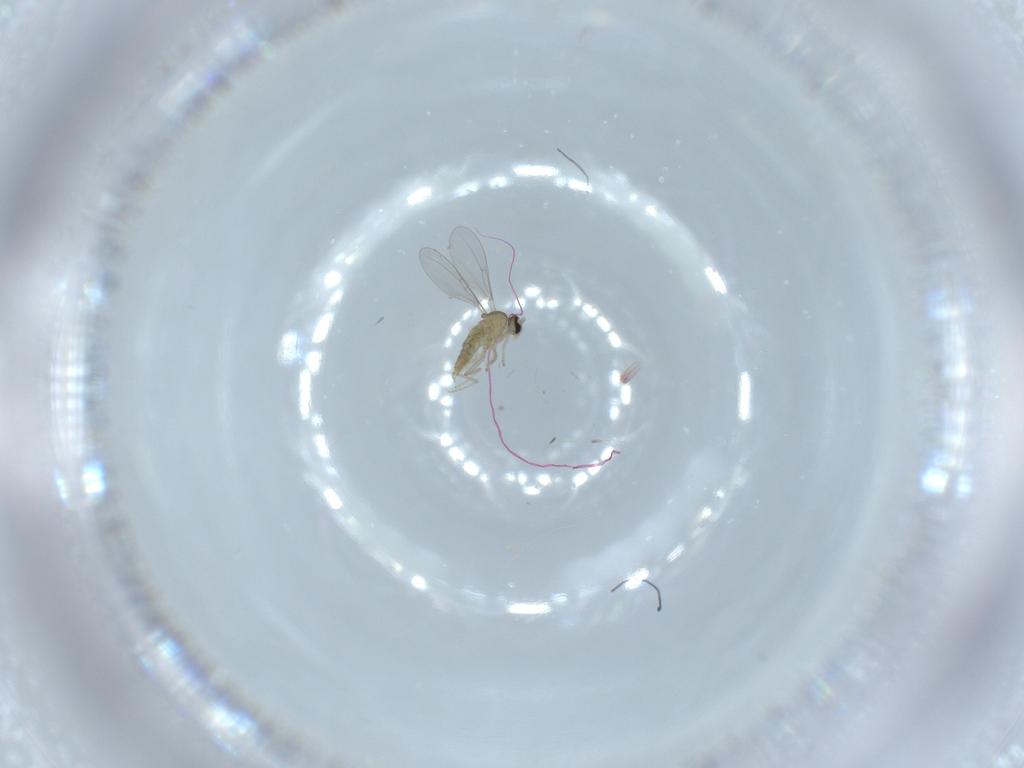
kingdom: Animalia
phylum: Arthropoda
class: Insecta
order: Diptera
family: Cecidomyiidae
